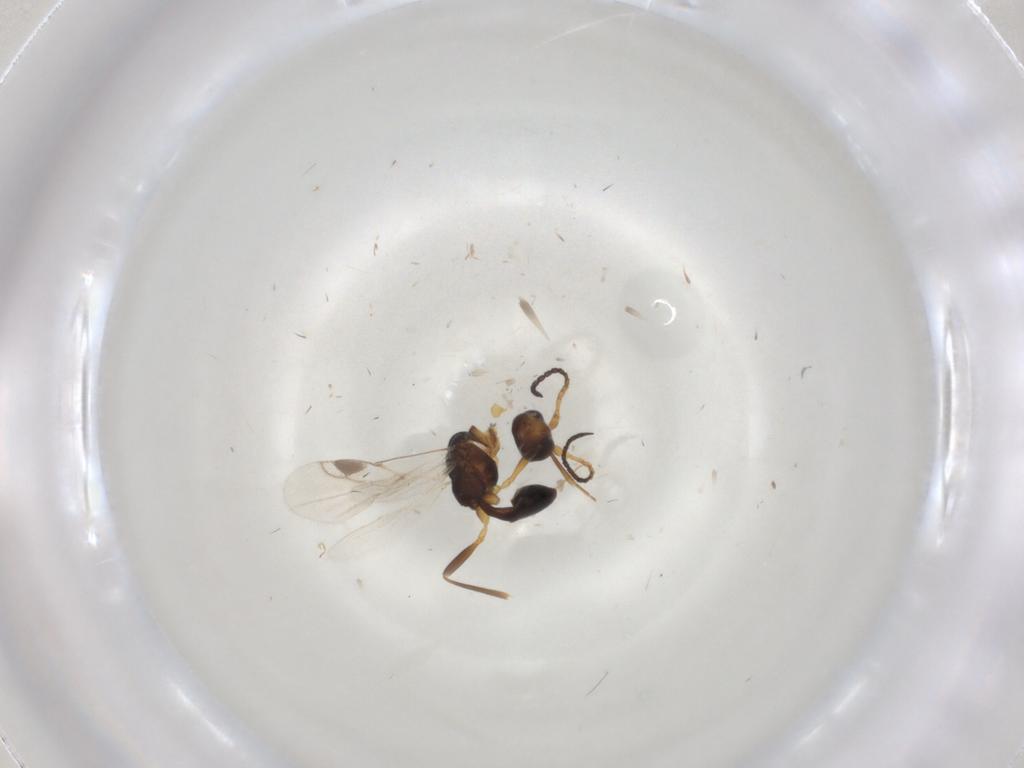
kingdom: Animalia
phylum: Arthropoda
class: Insecta
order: Hymenoptera
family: Braconidae
